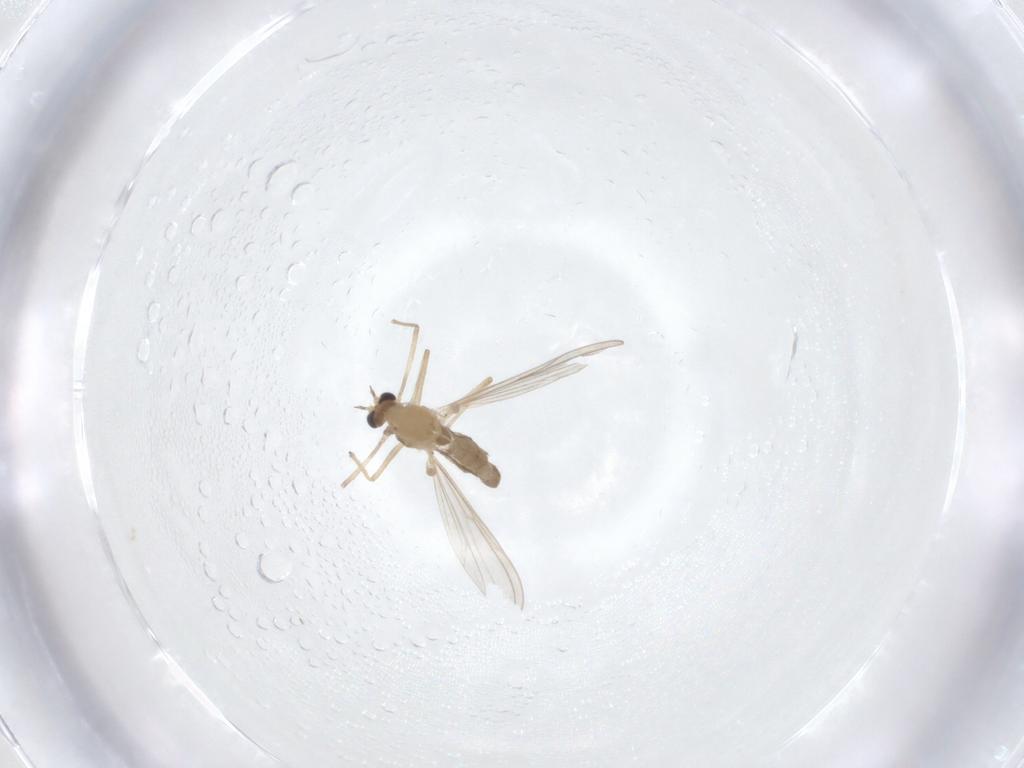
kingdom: Animalia
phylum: Arthropoda
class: Insecta
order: Diptera
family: Chironomidae
